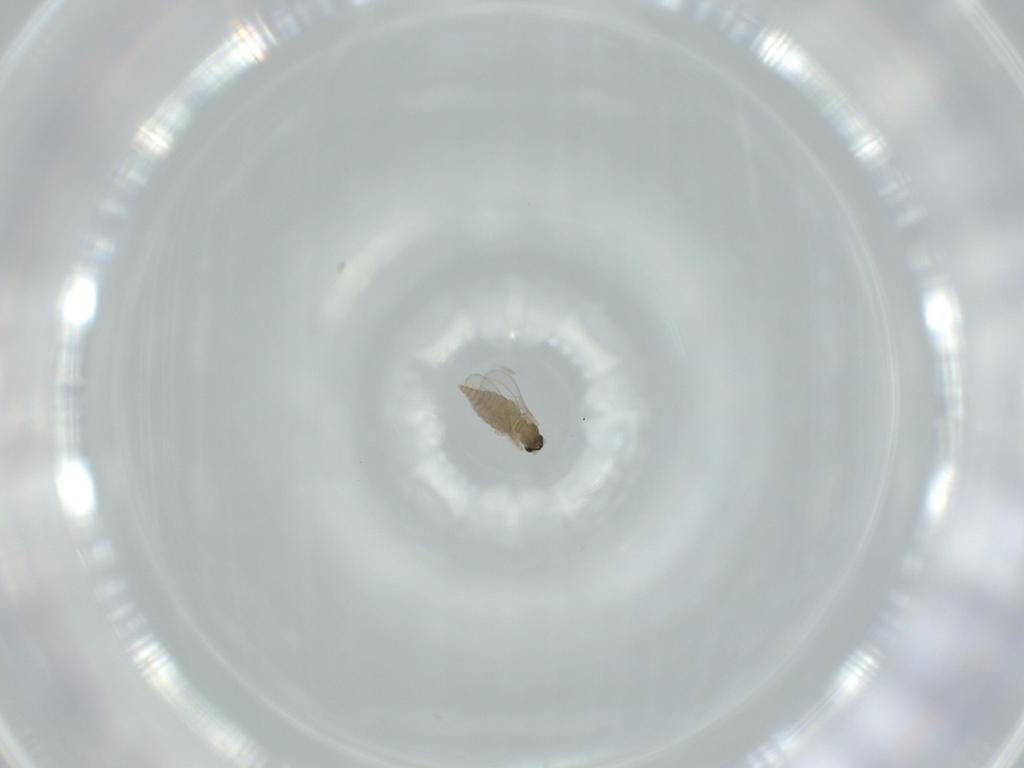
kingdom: Animalia
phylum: Arthropoda
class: Insecta
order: Diptera
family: Cecidomyiidae
